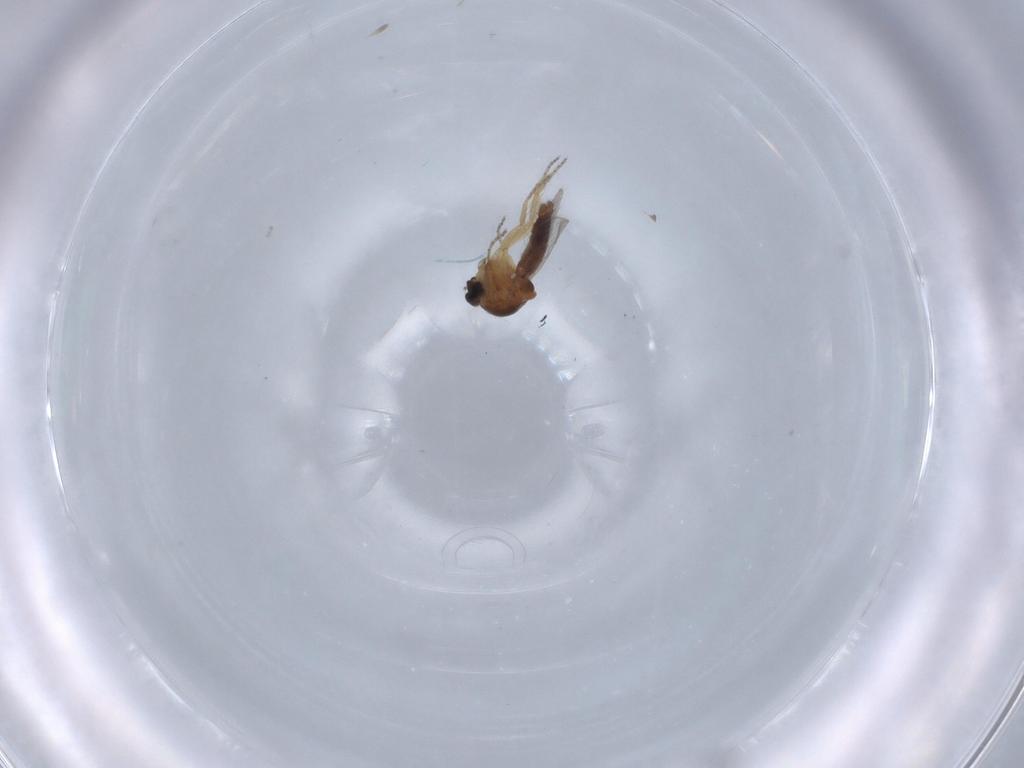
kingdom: Animalia
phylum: Arthropoda
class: Insecta
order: Diptera
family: Ceratopogonidae
